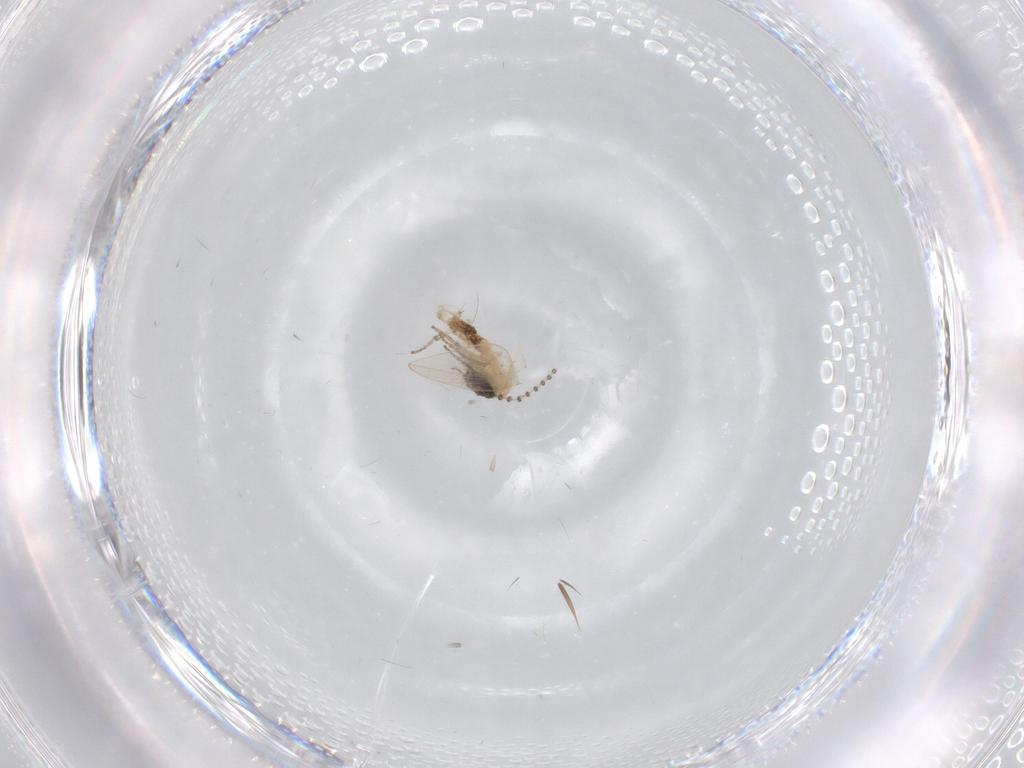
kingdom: Animalia
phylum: Arthropoda
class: Insecta
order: Diptera
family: Psychodidae
